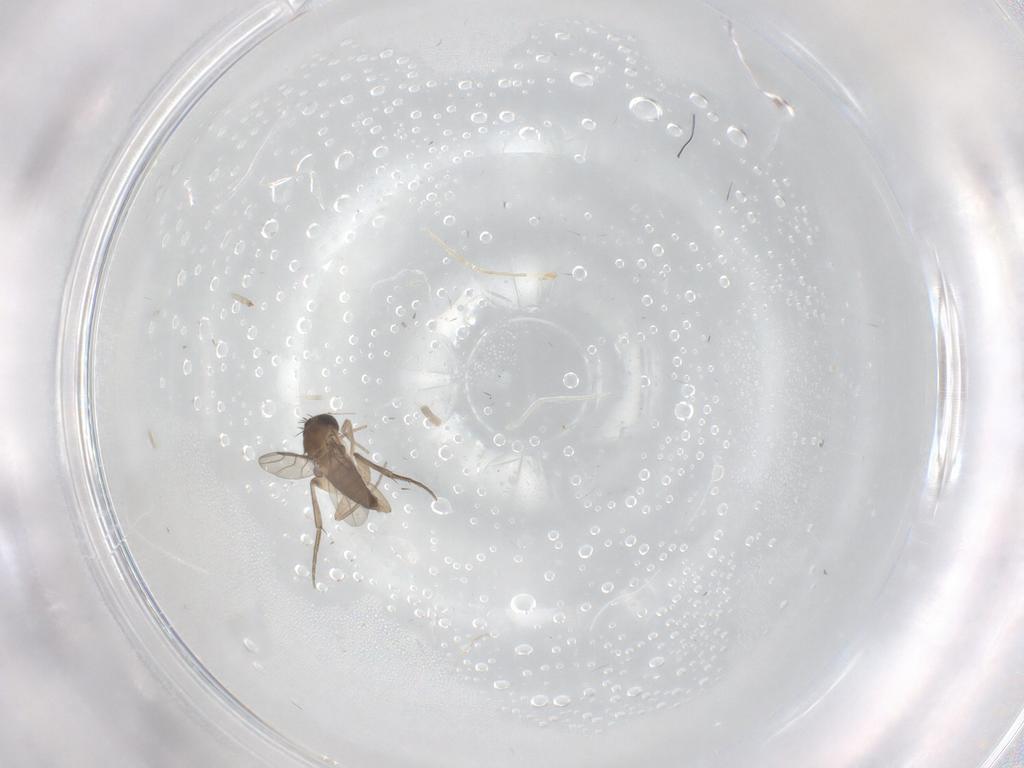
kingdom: Animalia
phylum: Arthropoda
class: Insecta
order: Diptera
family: Phoridae
